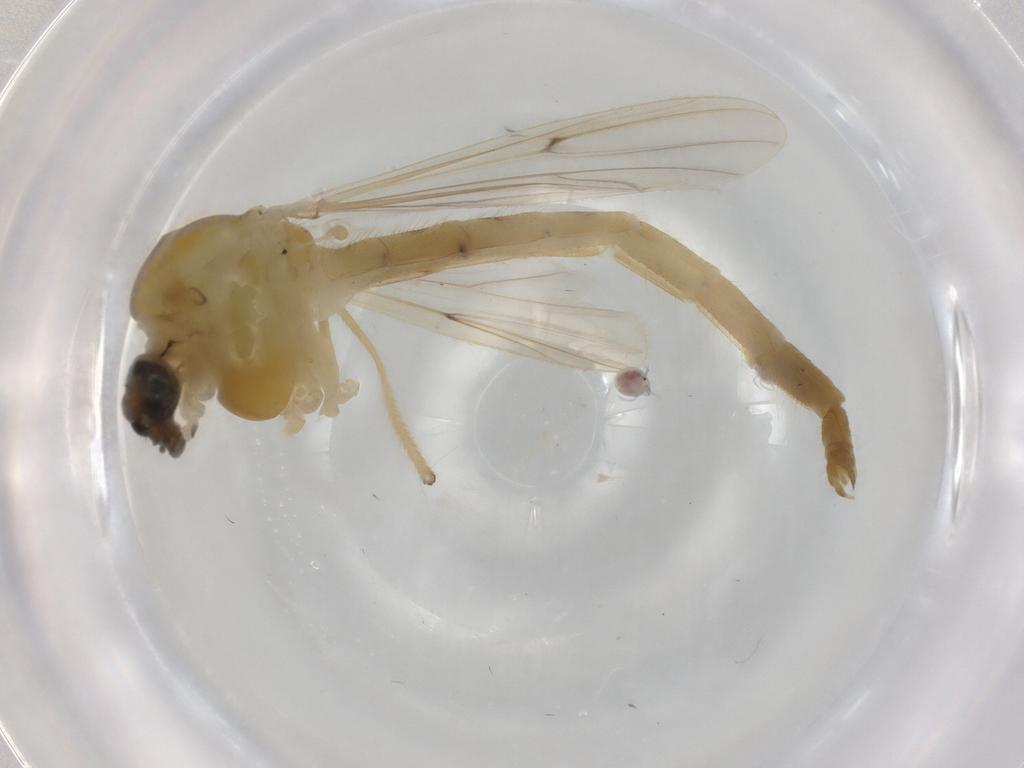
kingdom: Animalia
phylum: Arthropoda
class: Insecta
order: Diptera
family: Chironomidae
